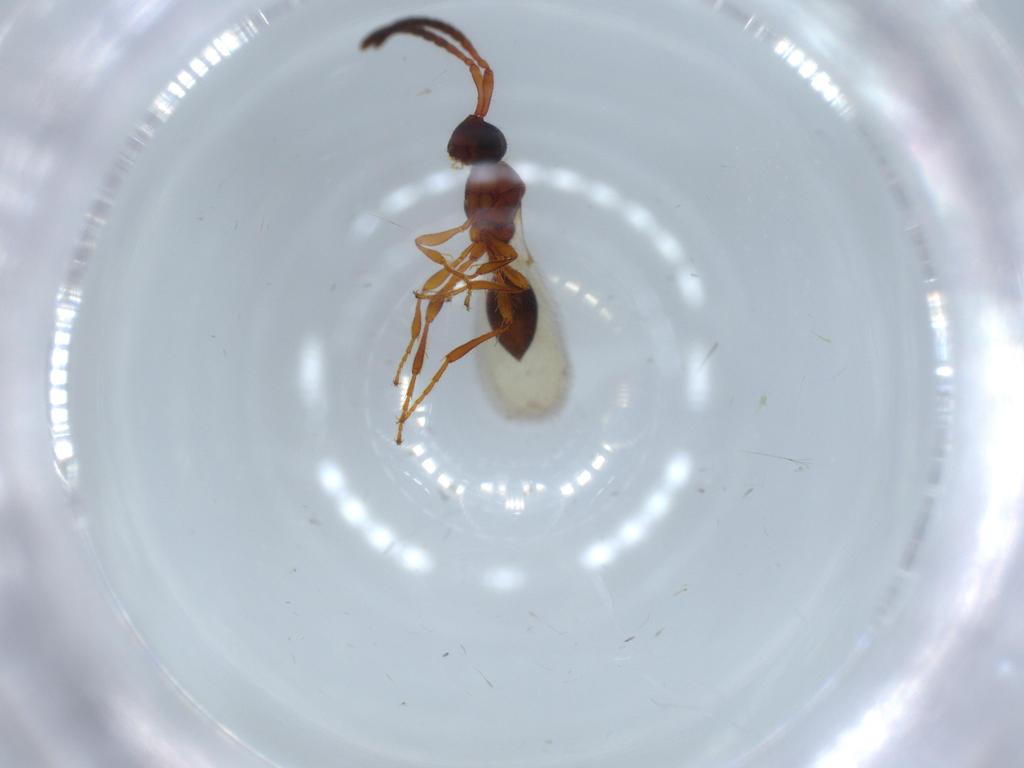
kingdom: Animalia
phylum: Arthropoda
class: Insecta
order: Hymenoptera
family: Diapriidae
